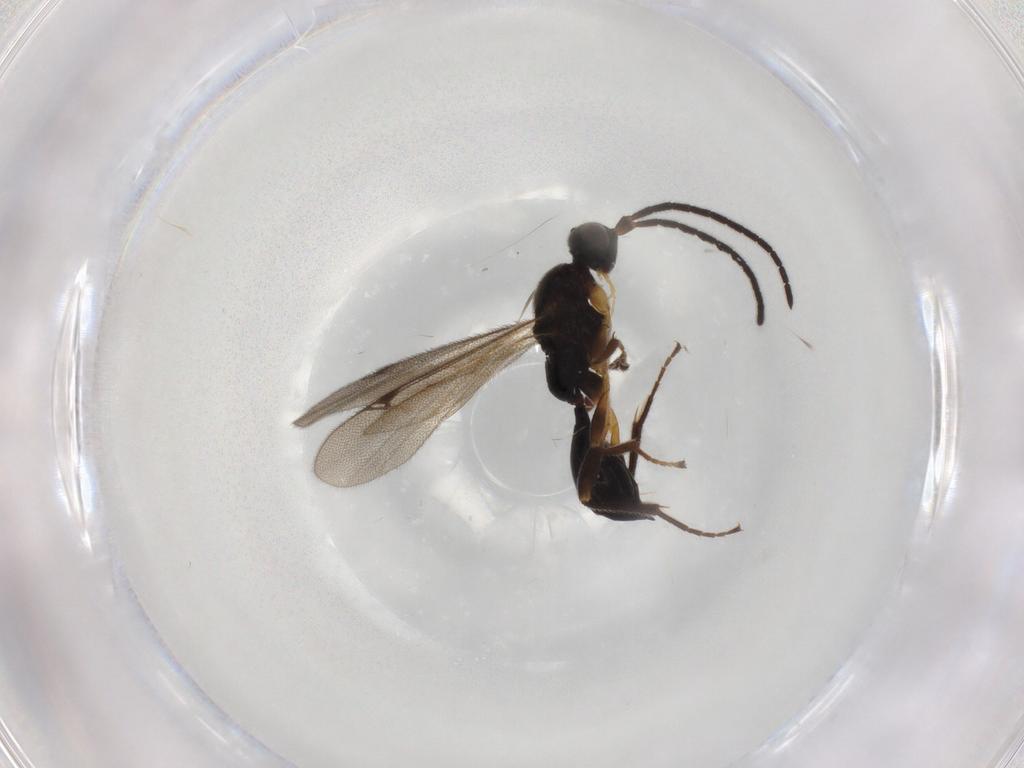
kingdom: Animalia
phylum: Arthropoda
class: Insecta
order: Hymenoptera
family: Proctotrupidae
